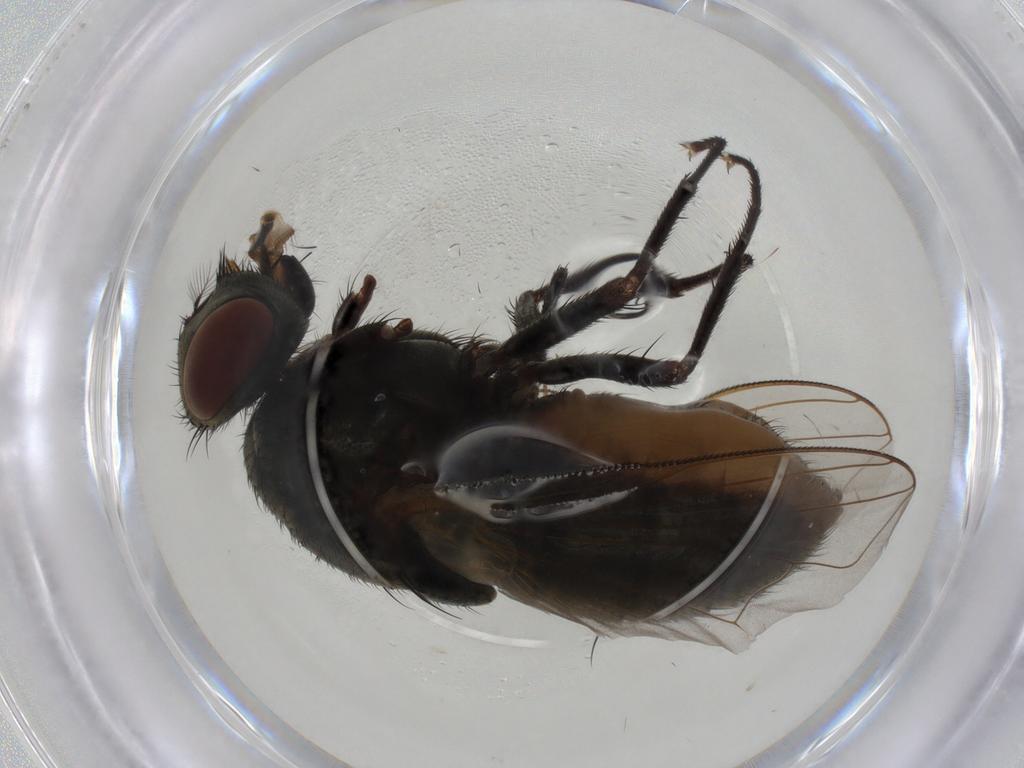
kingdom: Animalia
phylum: Arthropoda
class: Insecta
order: Diptera
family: Ceratopogonidae
